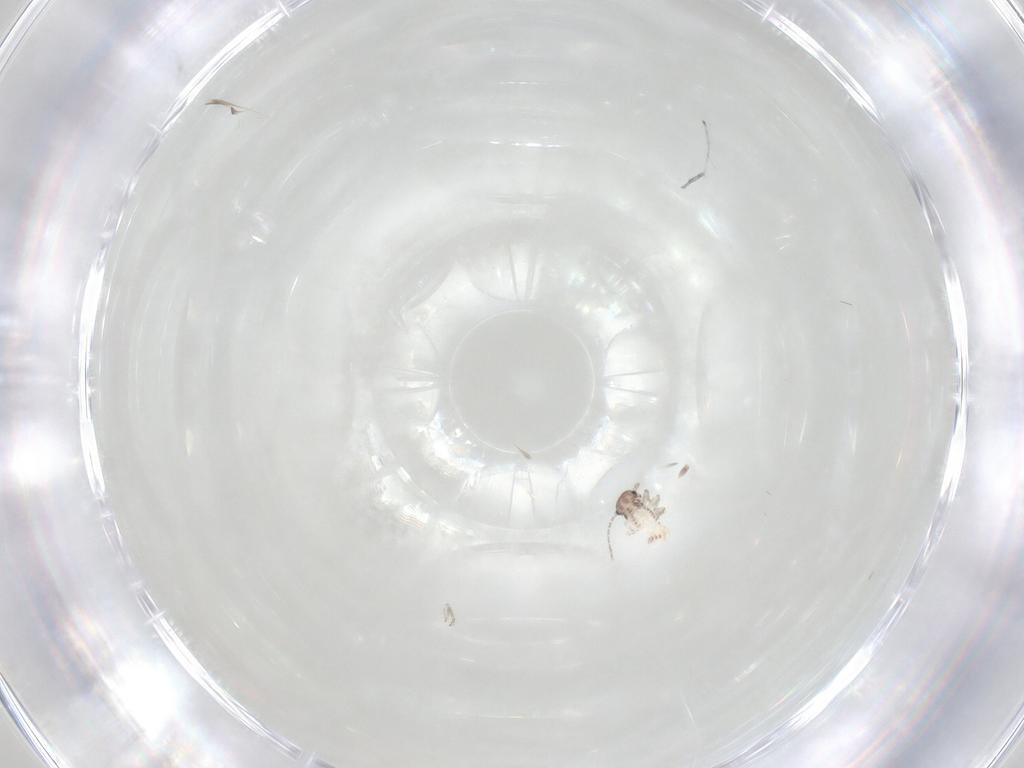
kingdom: Animalia
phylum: Arthropoda
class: Insecta
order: Psocodea
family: Philotarsidae
